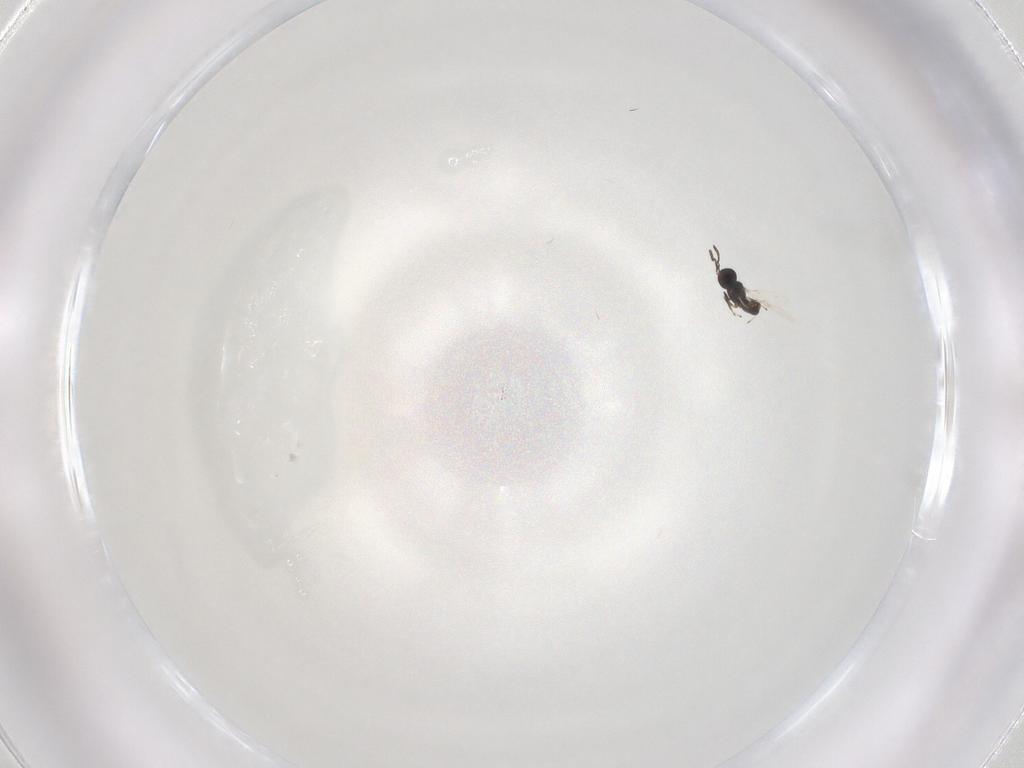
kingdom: Animalia
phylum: Arthropoda
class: Insecta
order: Hymenoptera
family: Scelionidae
